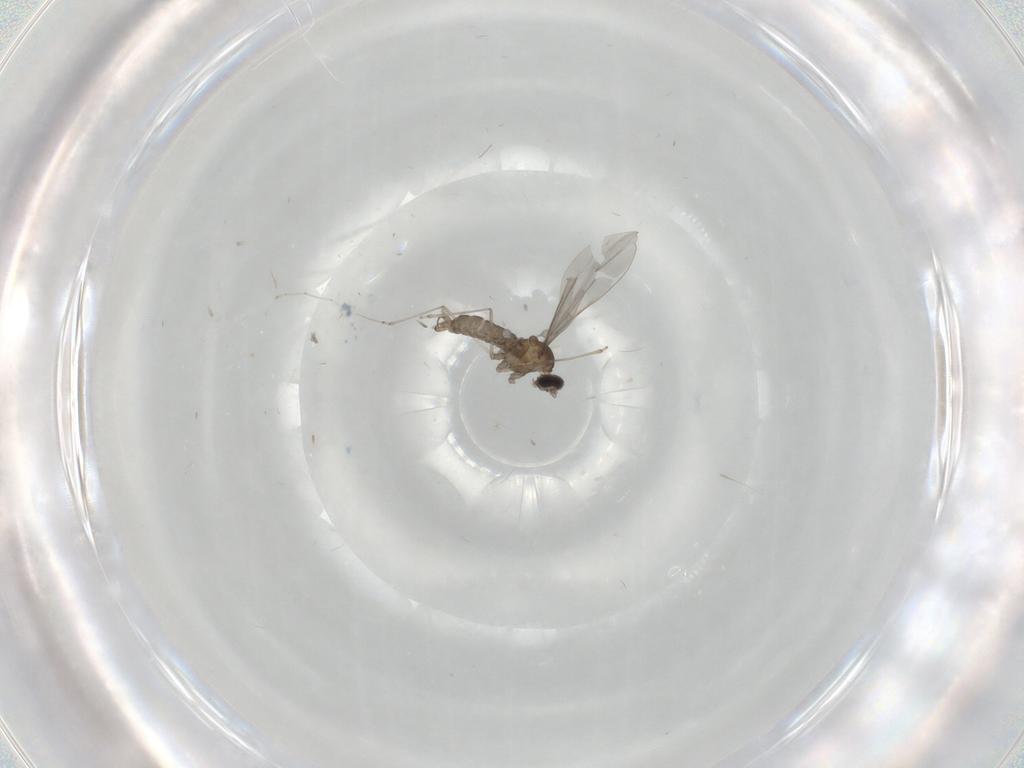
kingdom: Animalia
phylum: Arthropoda
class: Insecta
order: Diptera
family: Cecidomyiidae
